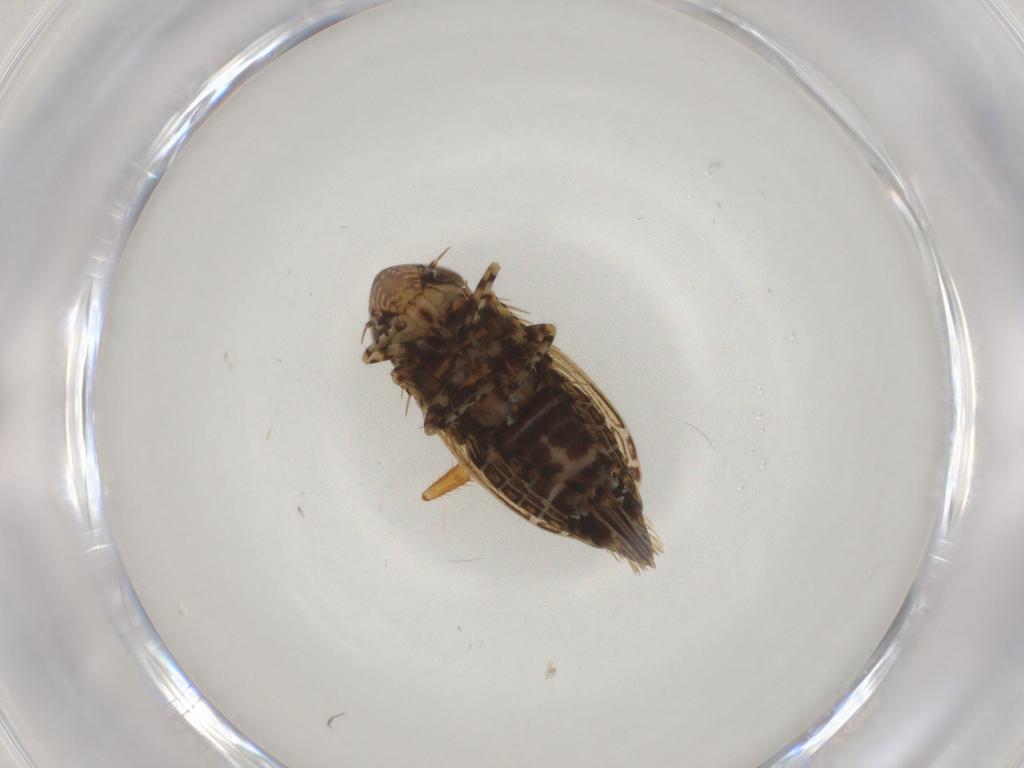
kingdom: Animalia
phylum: Arthropoda
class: Insecta
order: Hemiptera
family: Cicadellidae
